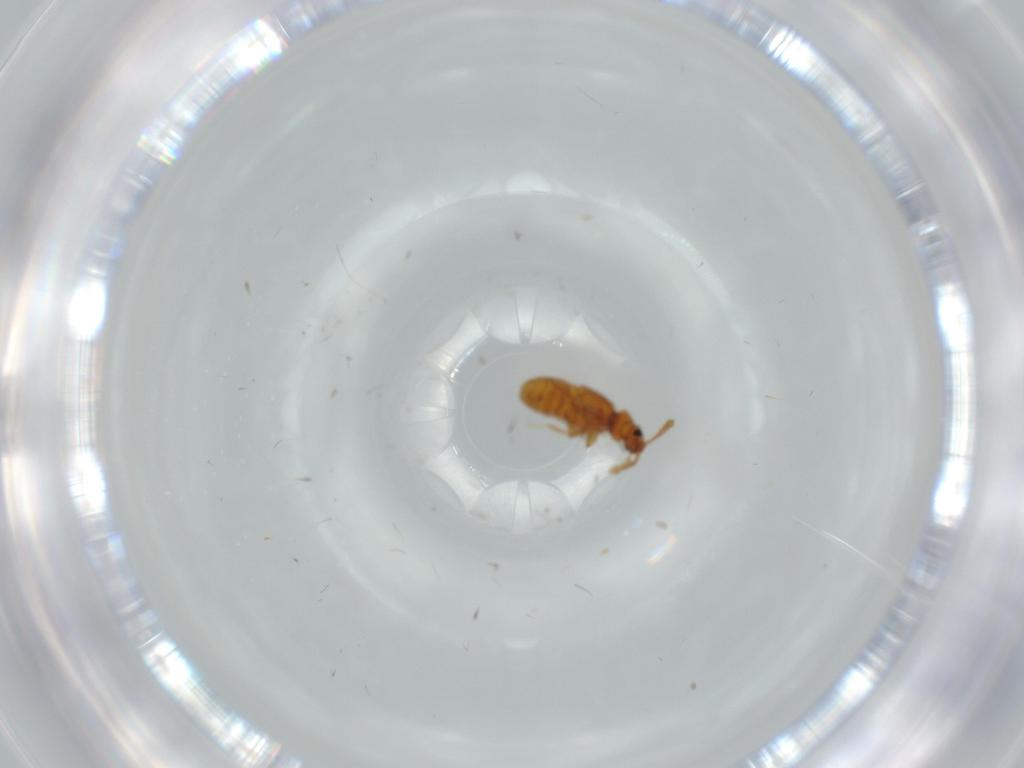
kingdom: Animalia
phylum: Arthropoda
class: Insecta
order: Coleoptera
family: Staphylinidae
